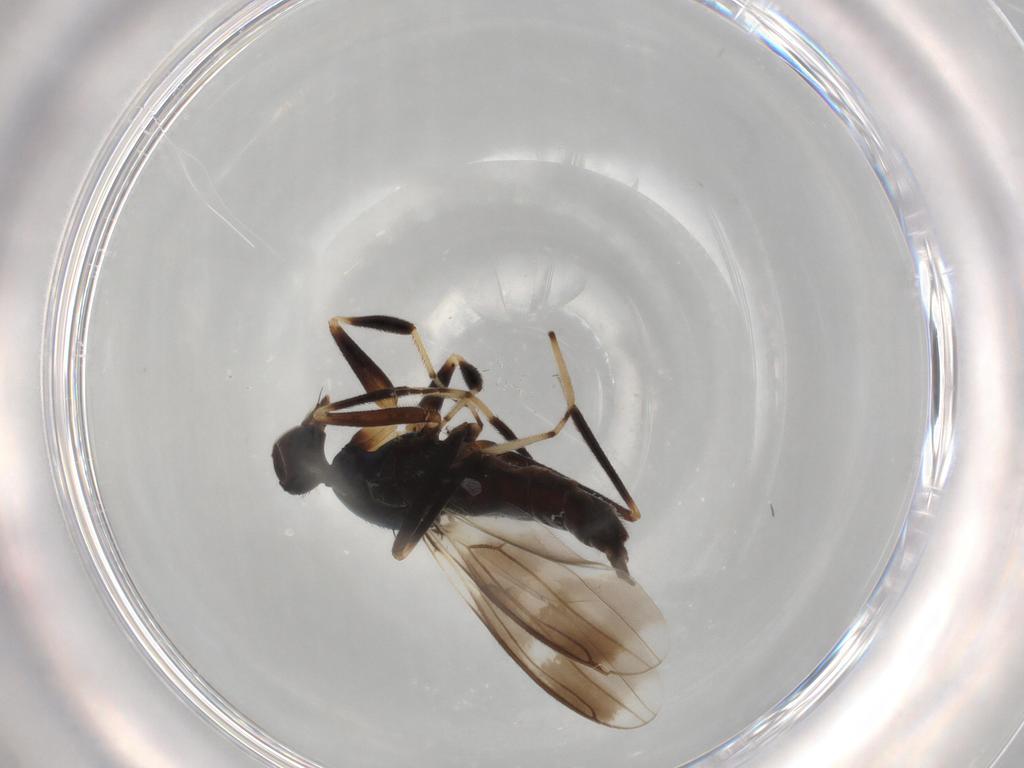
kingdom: Animalia
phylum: Arthropoda
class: Insecta
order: Diptera
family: Hybotidae
